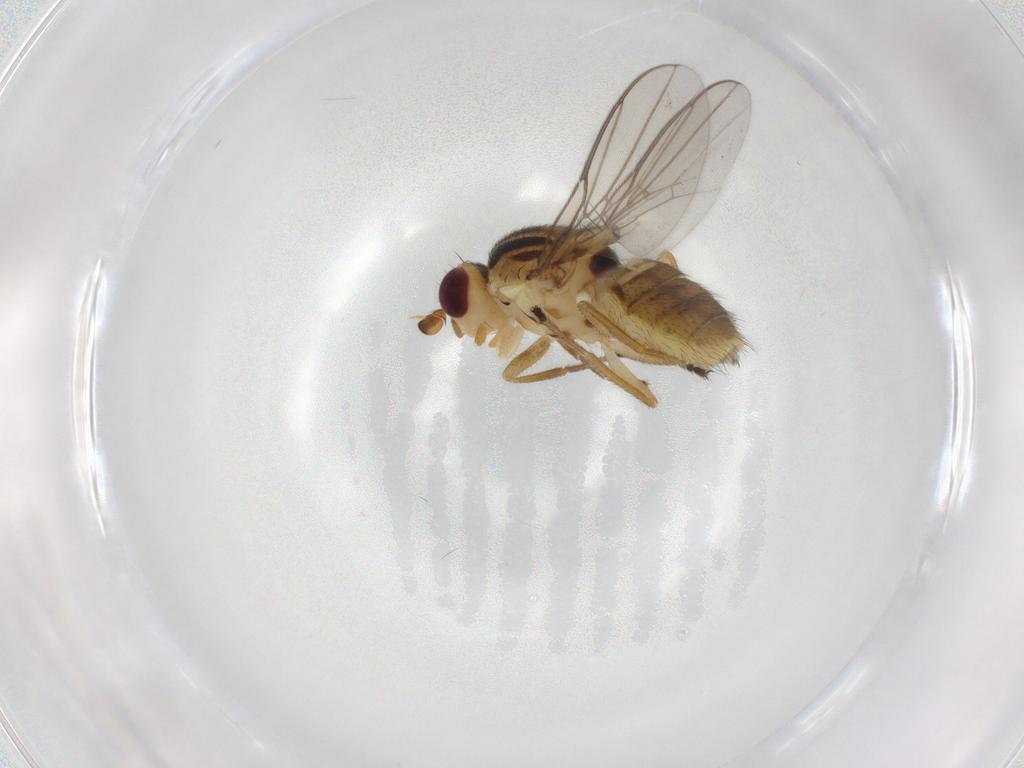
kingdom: Animalia
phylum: Arthropoda
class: Insecta
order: Diptera
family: Chloropidae
